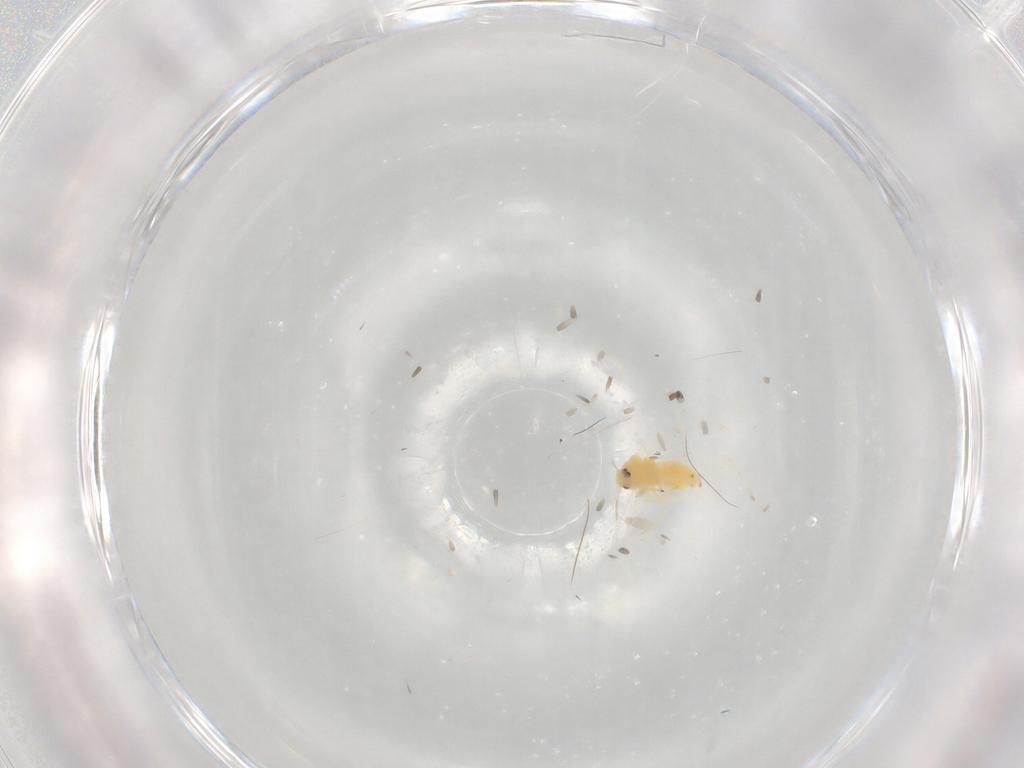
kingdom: Animalia
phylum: Arthropoda
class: Insecta
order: Hemiptera
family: Aleyrodidae
